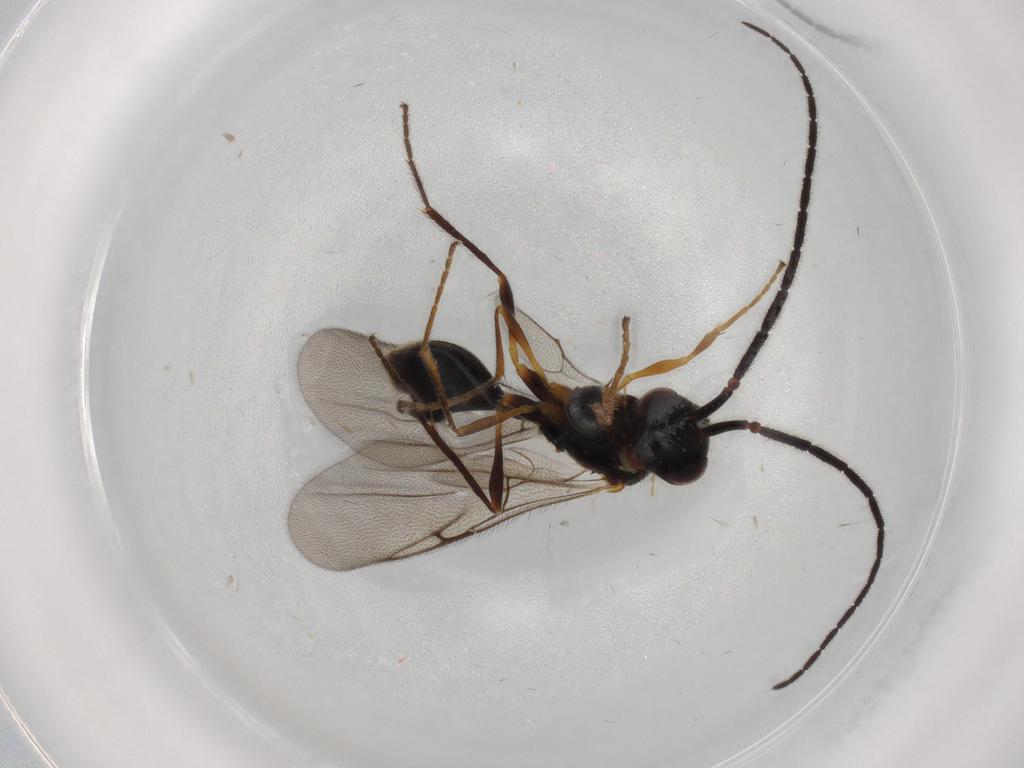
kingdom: Animalia
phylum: Arthropoda
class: Insecta
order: Hymenoptera
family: Diapriidae
